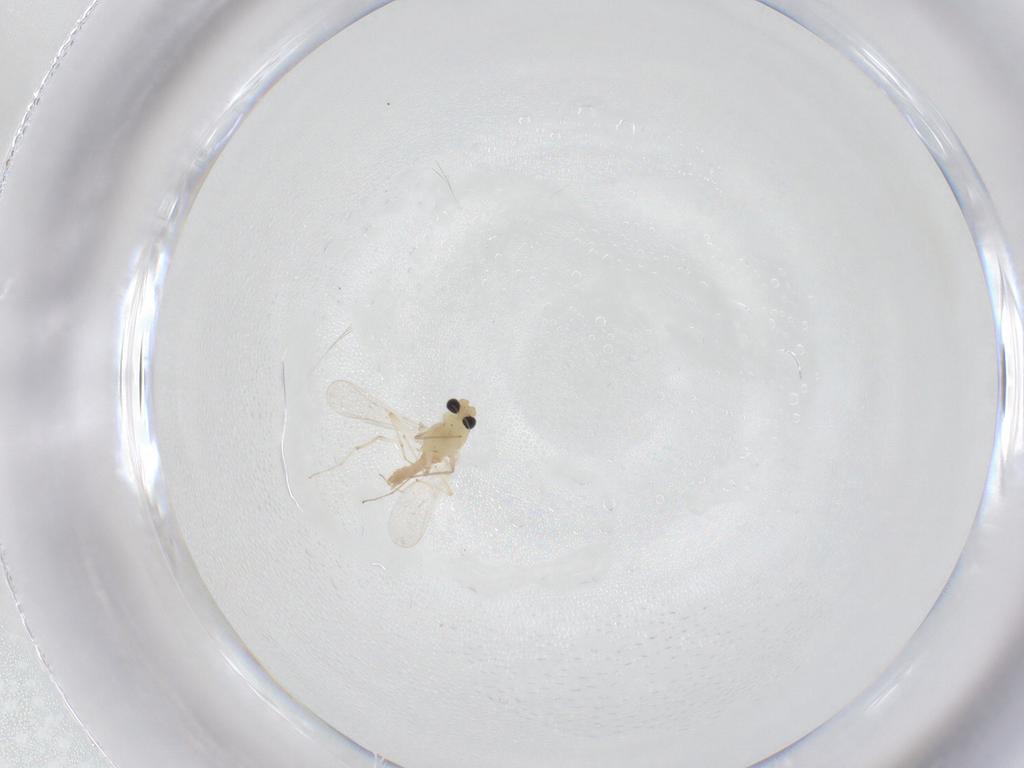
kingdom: Animalia
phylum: Arthropoda
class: Insecta
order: Diptera
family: Chironomidae
